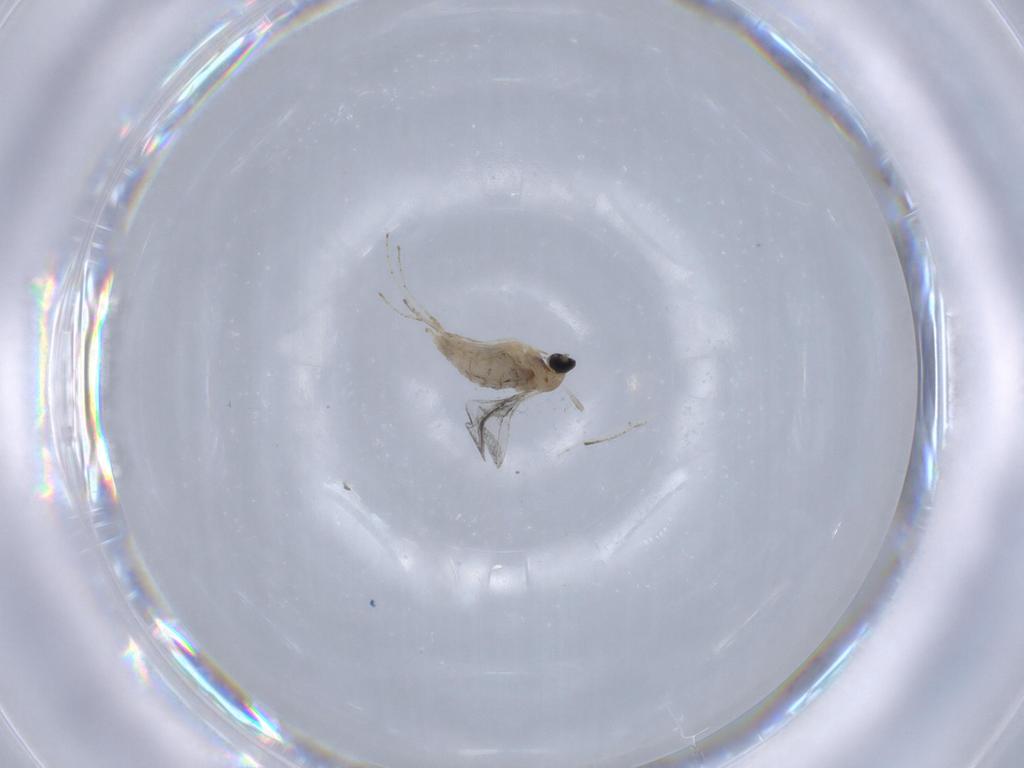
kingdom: Animalia
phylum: Arthropoda
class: Insecta
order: Diptera
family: Cecidomyiidae
